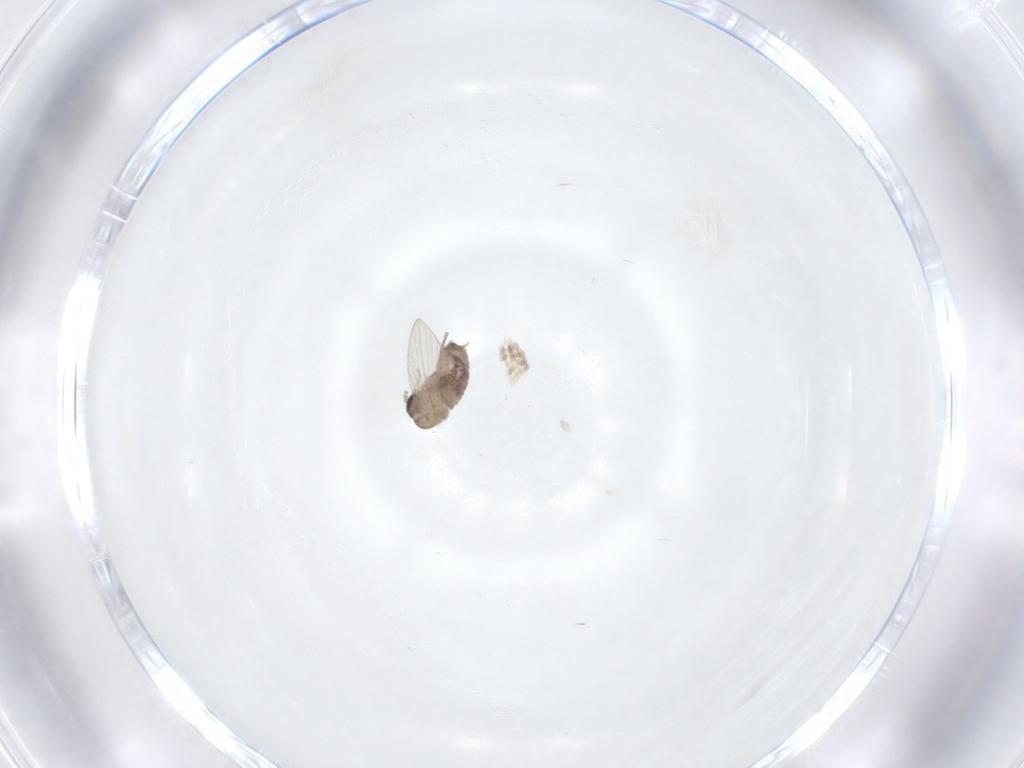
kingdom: Animalia
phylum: Arthropoda
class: Insecta
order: Diptera
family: Psychodidae
